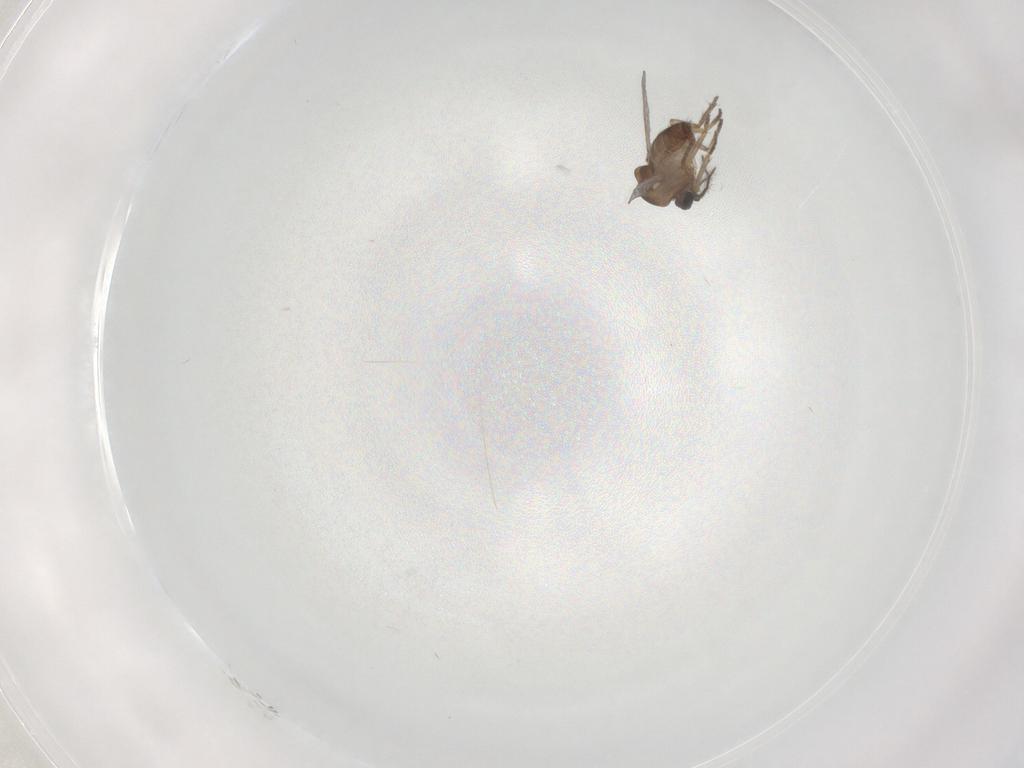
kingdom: Animalia
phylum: Arthropoda
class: Insecta
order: Diptera
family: Ceratopogonidae
